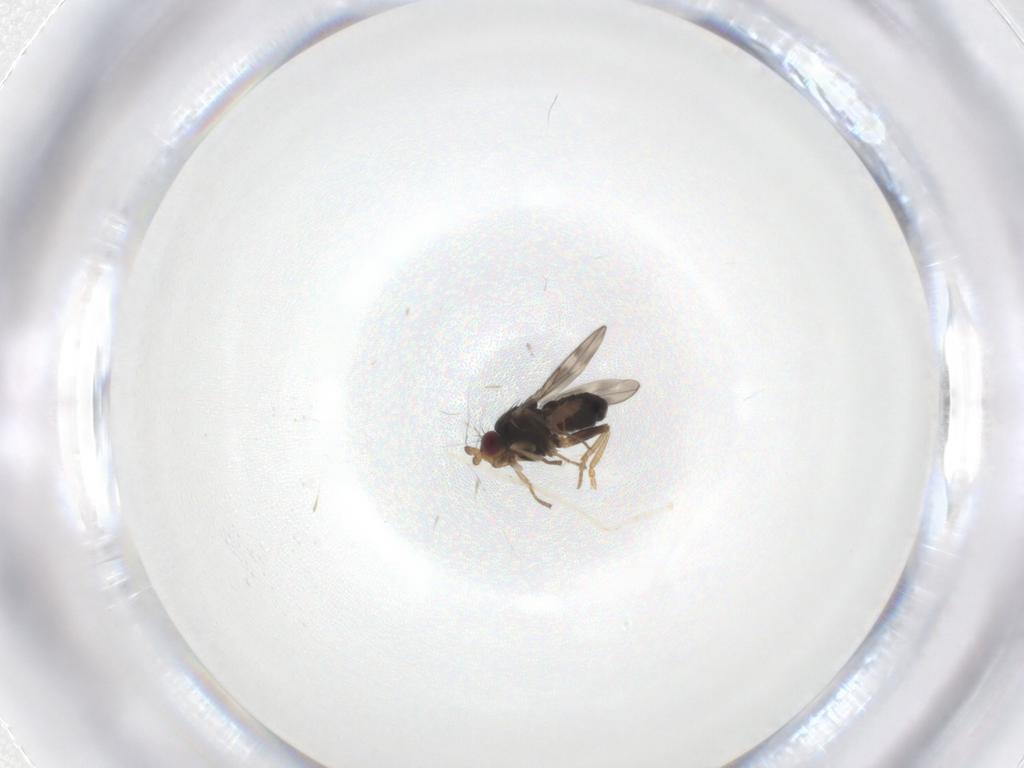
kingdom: Animalia
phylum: Arthropoda
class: Insecta
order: Diptera
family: Sphaeroceridae
